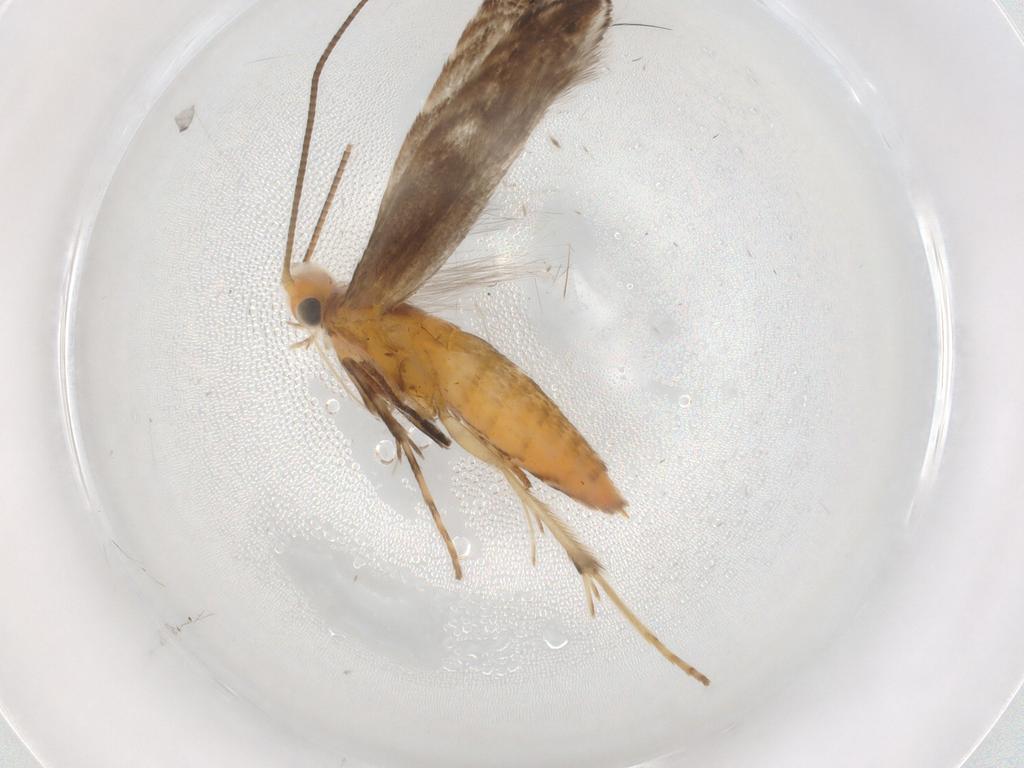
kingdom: Animalia
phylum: Arthropoda
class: Insecta
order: Lepidoptera
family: Gracillariidae
